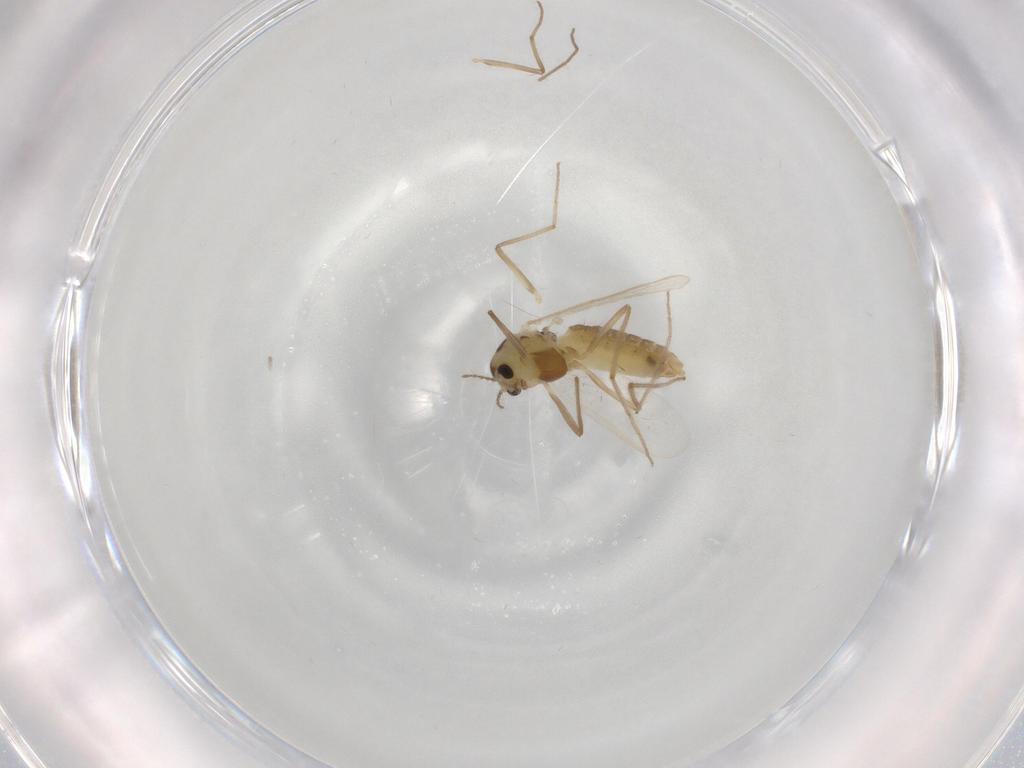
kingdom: Animalia
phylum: Arthropoda
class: Insecta
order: Diptera
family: Chironomidae
